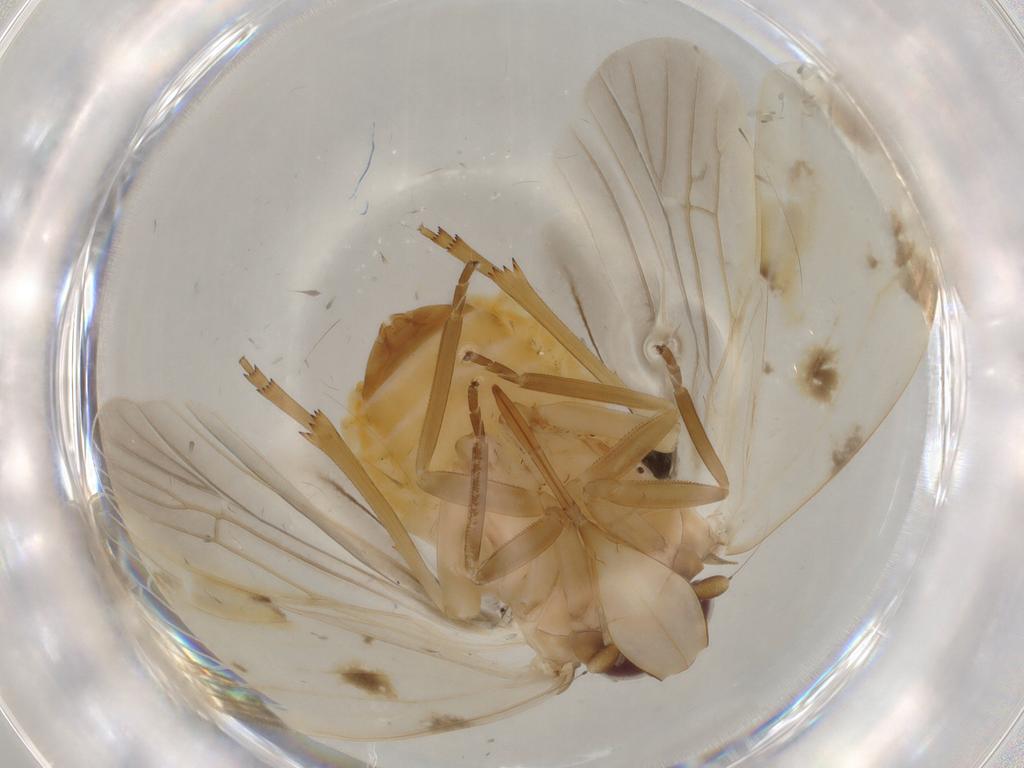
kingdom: Animalia
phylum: Arthropoda
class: Insecta
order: Hemiptera
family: Achilidae
